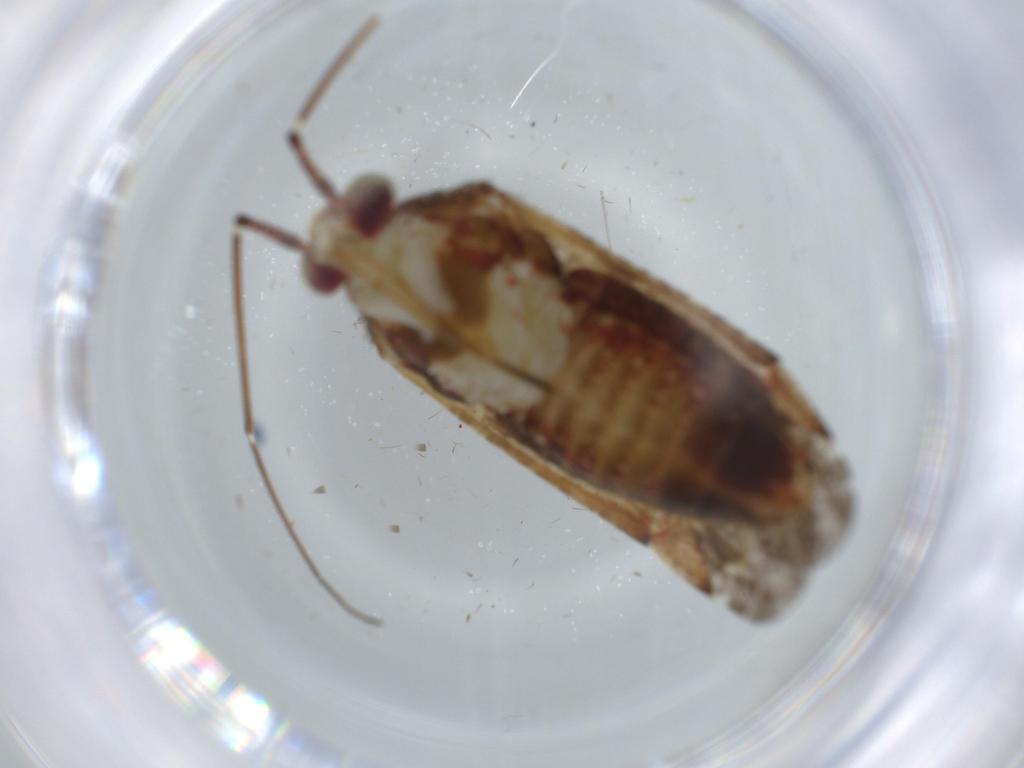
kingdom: Animalia
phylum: Arthropoda
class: Insecta
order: Hemiptera
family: Miridae
